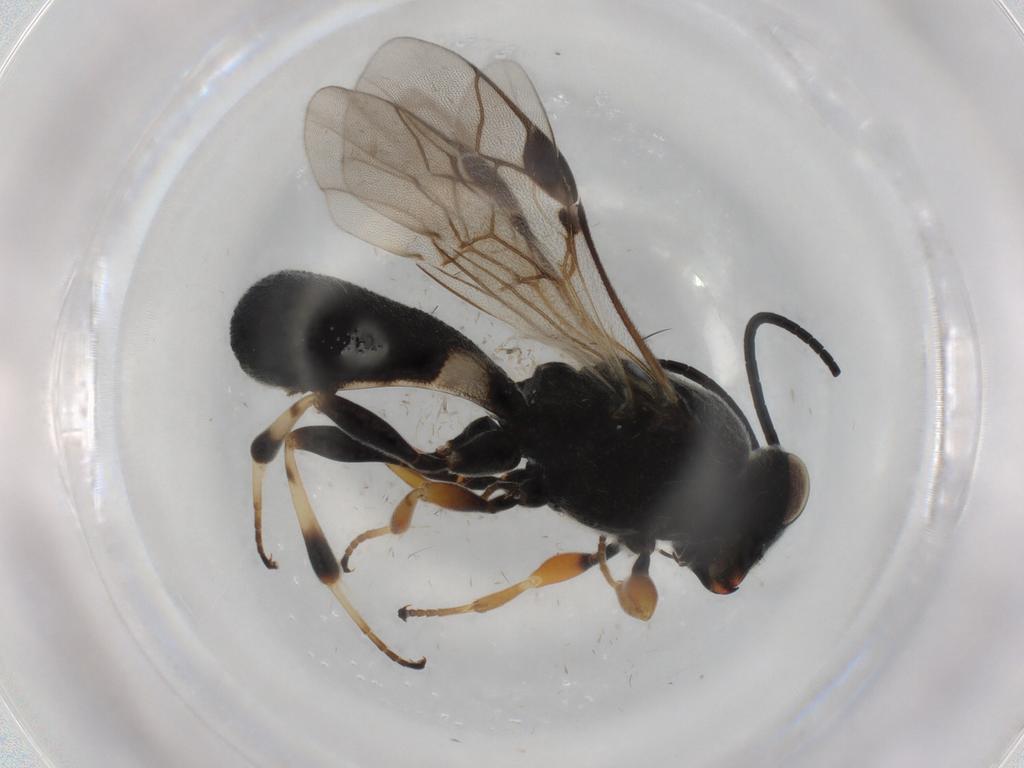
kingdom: Animalia
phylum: Arthropoda
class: Insecta
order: Hymenoptera
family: Braconidae
